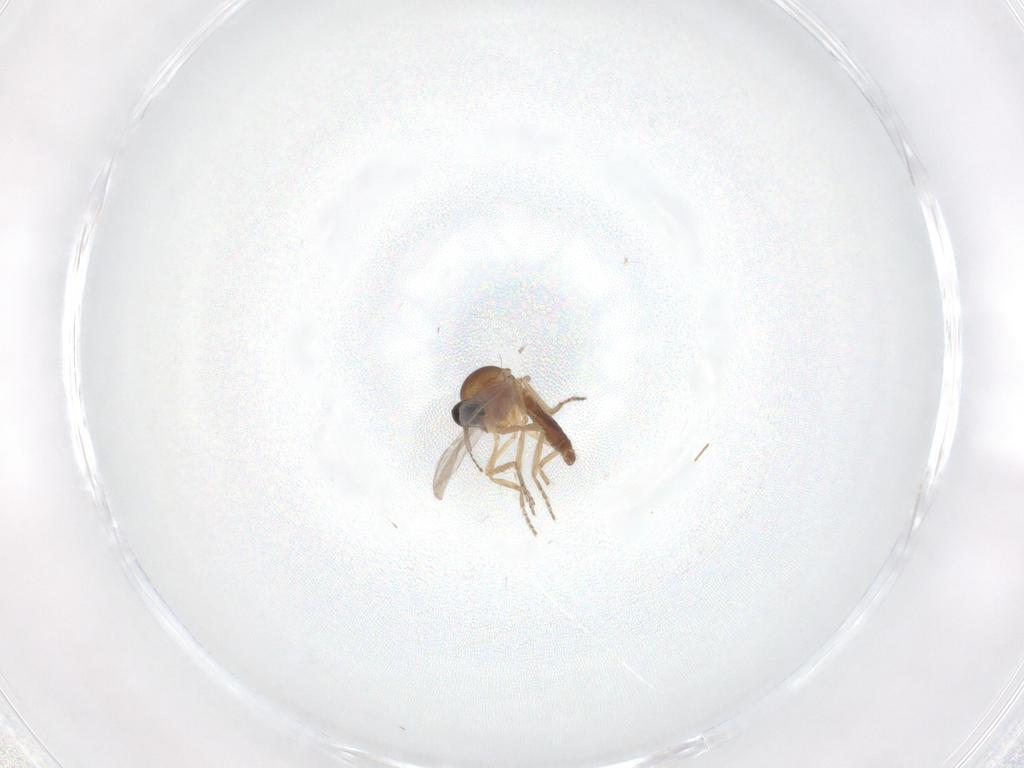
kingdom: Animalia
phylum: Arthropoda
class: Insecta
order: Diptera
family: Ceratopogonidae
